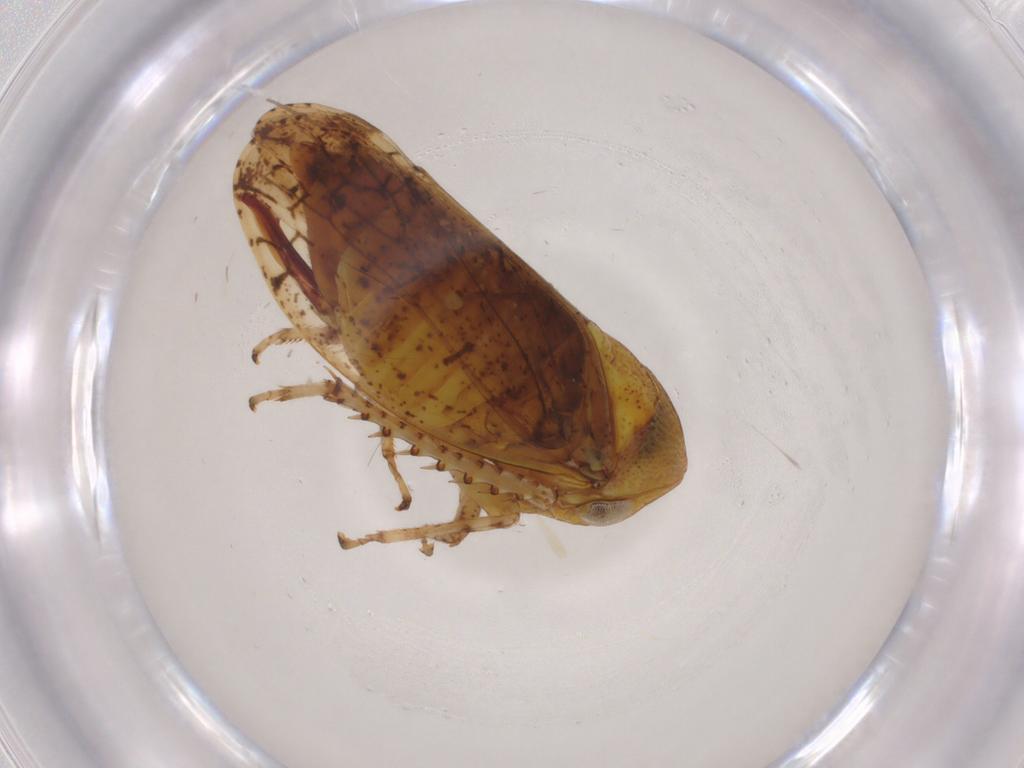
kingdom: Animalia
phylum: Arthropoda
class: Insecta
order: Hemiptera
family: Cicadellidae
